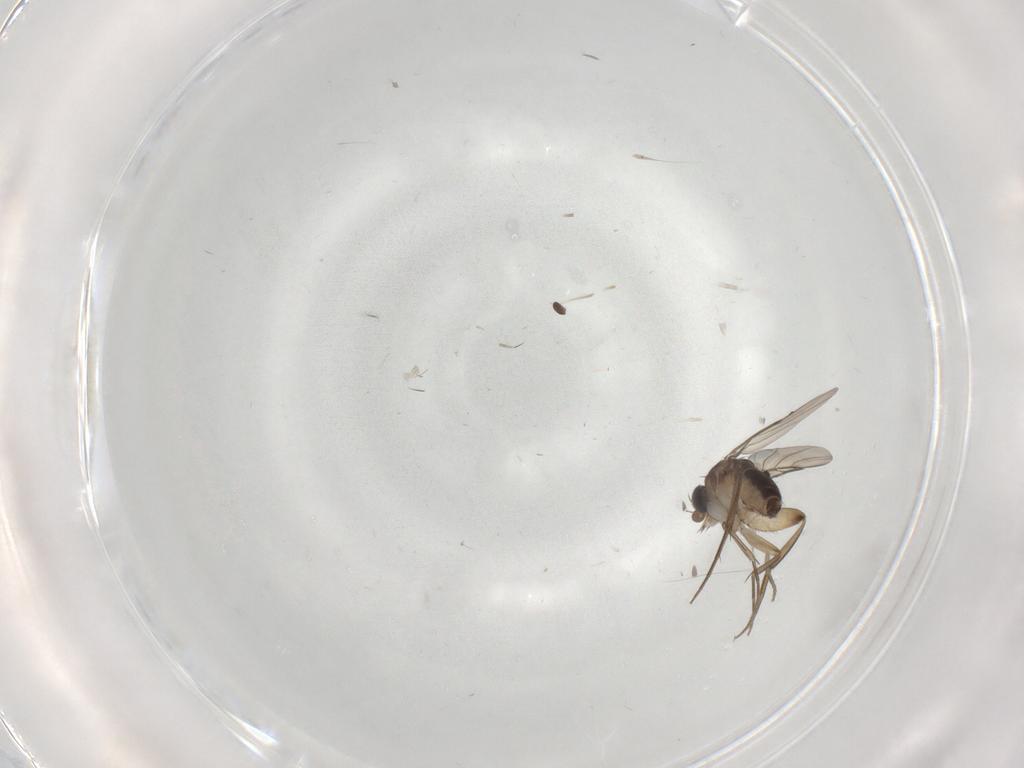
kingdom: Animalia
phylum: Arthropoda
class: Insecta
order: Diptera
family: Phoridae
